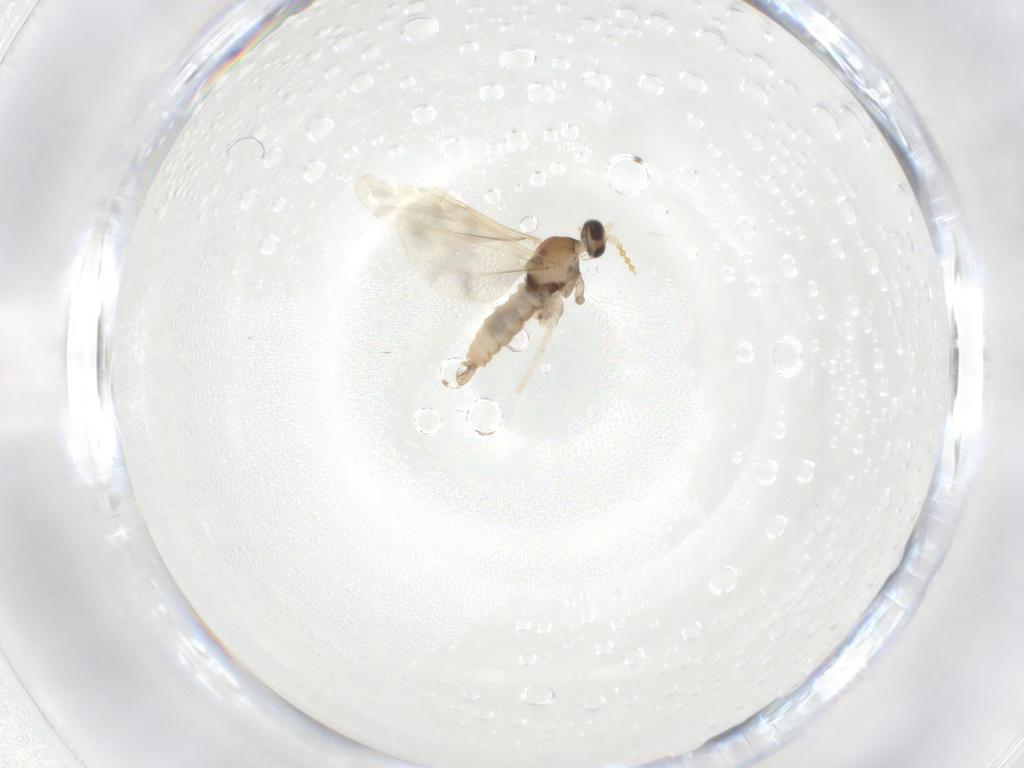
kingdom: Animalia
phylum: Arthropoda
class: Insecta
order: Diptera
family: Cecidomyiidae
